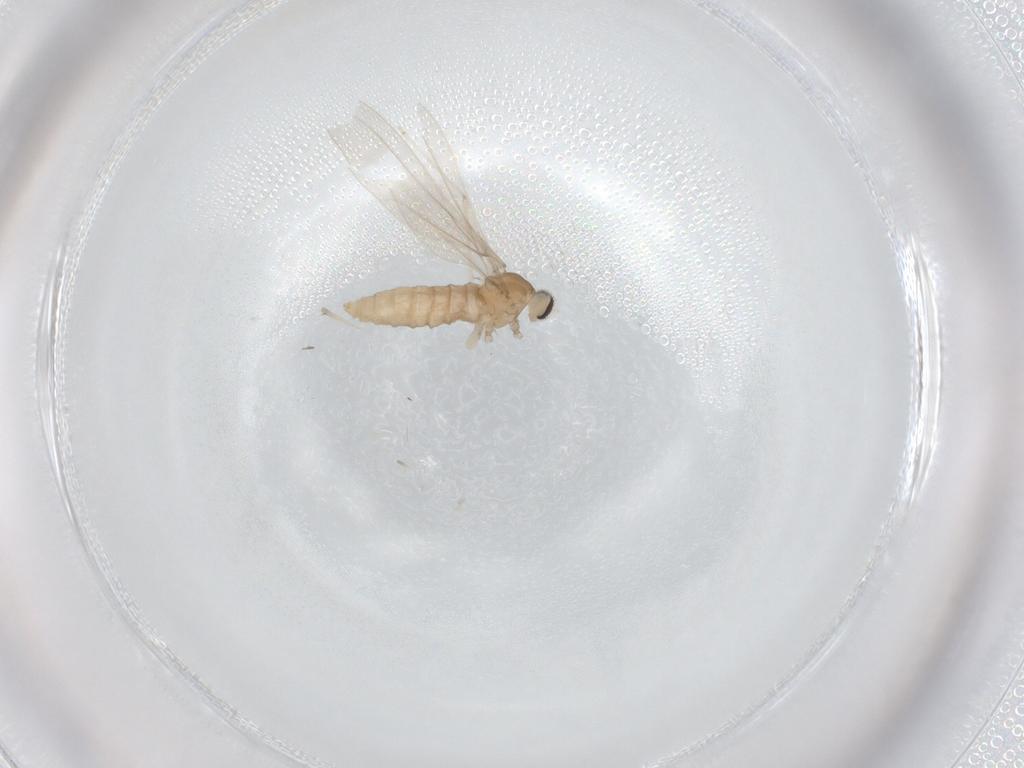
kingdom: Animalia
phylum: Arthropoda
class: Insecta
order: Diptera
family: Cecidomyiidae
